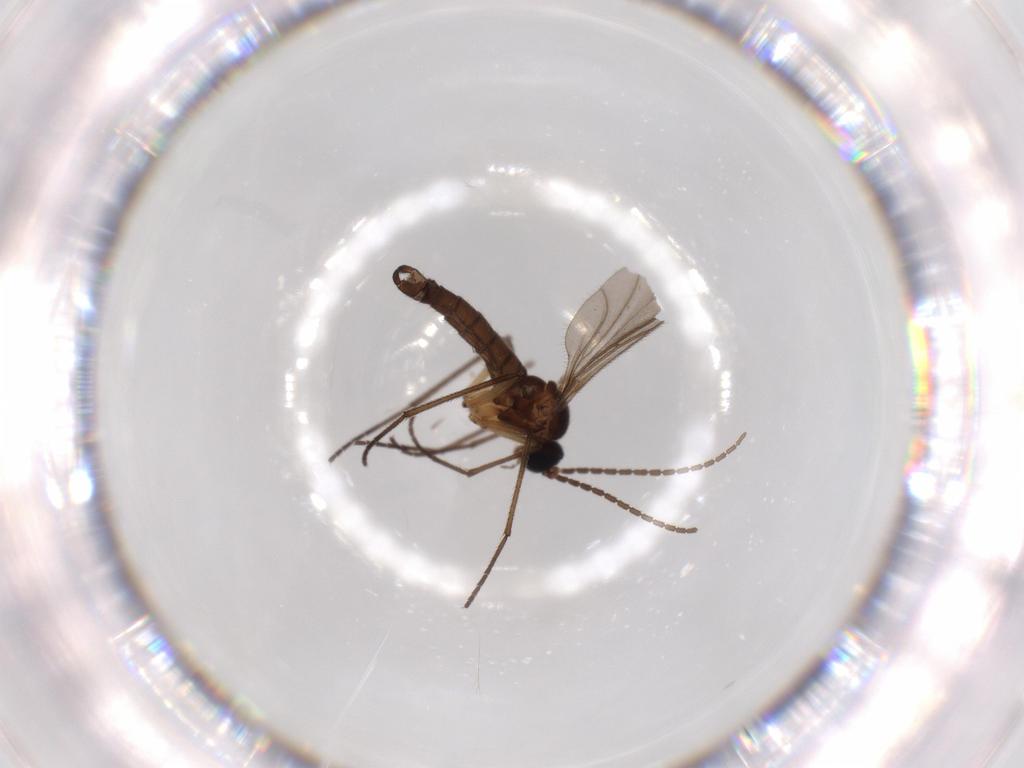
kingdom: Animalia
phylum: Arthropoda
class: Insecta
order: Diptera
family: Sciaridae
